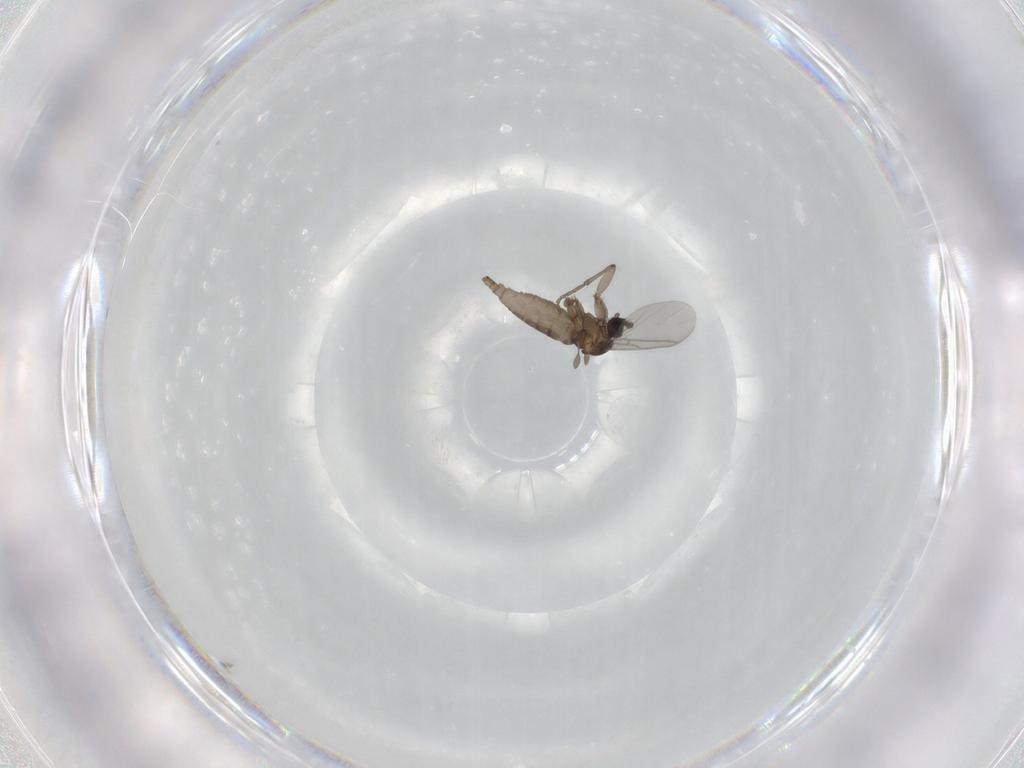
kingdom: Animalia
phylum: Arthropoda
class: Insecta
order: Diptera
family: Sciaridae
